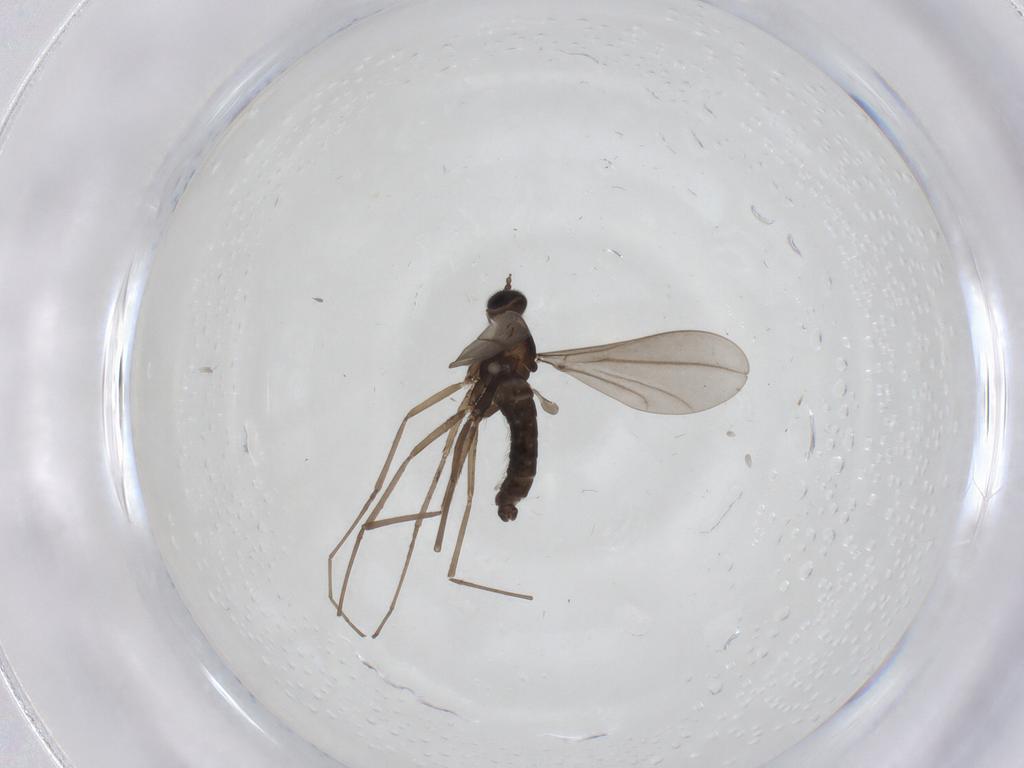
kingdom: Animalia
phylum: Arthropoda
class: Insecta
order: Diptera
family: Cecidomyiidae
